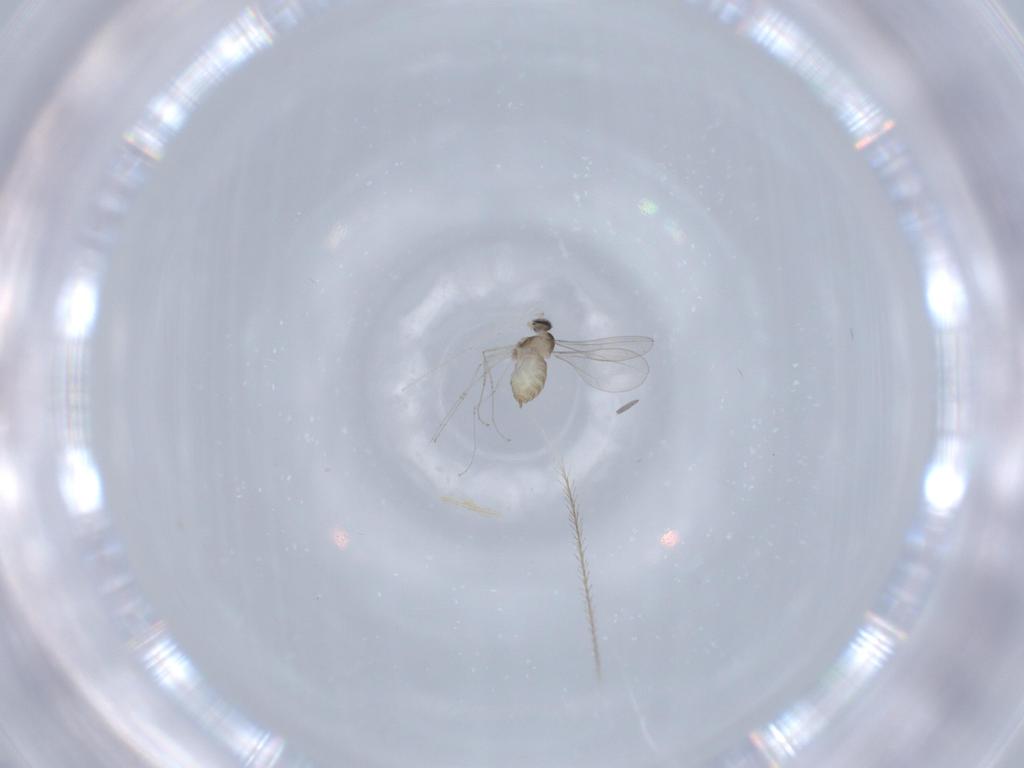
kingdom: Animalia
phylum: Arthropoda
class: Insecta
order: Diptera
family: Cecidomyiidae
